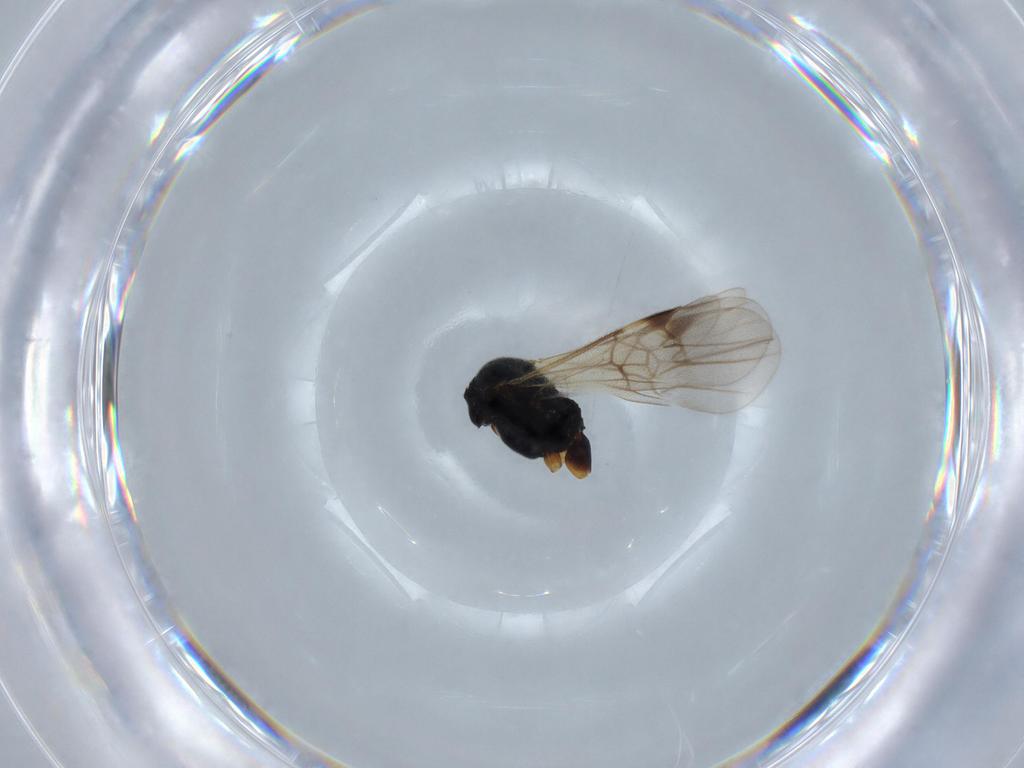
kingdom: Animalia
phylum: Arthropoda
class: Insecta
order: Hymenoptera
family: Braconidae
